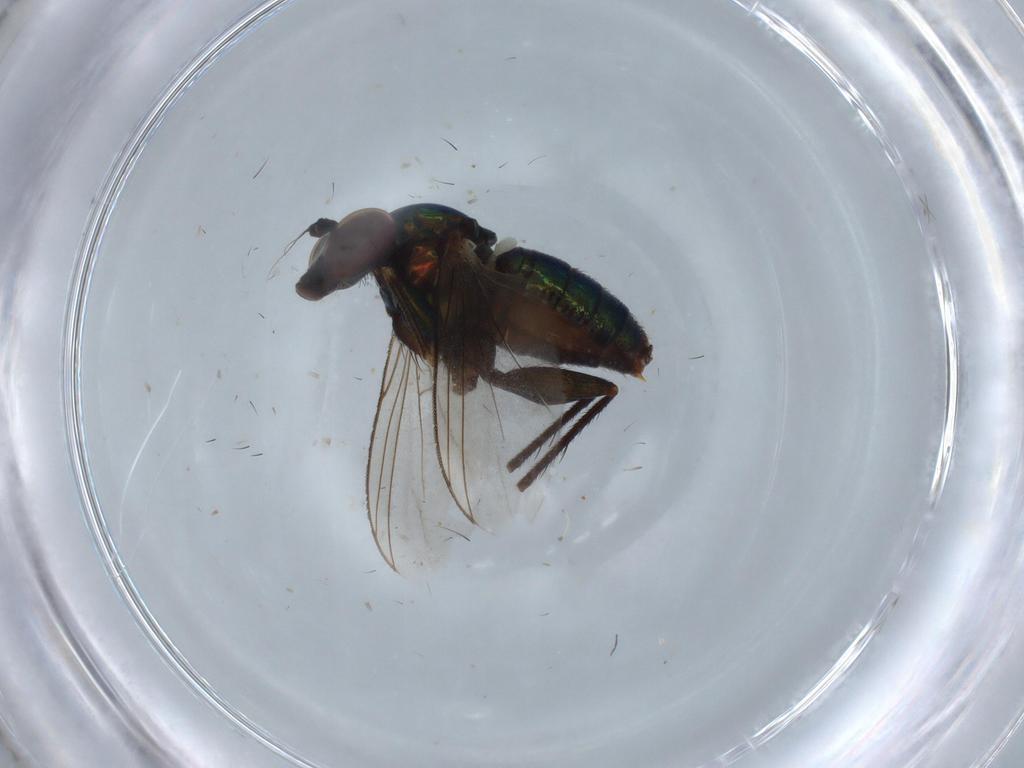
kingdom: Animalia
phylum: Arthropoda
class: Insecta
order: Diptera
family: Dolichopodidae
